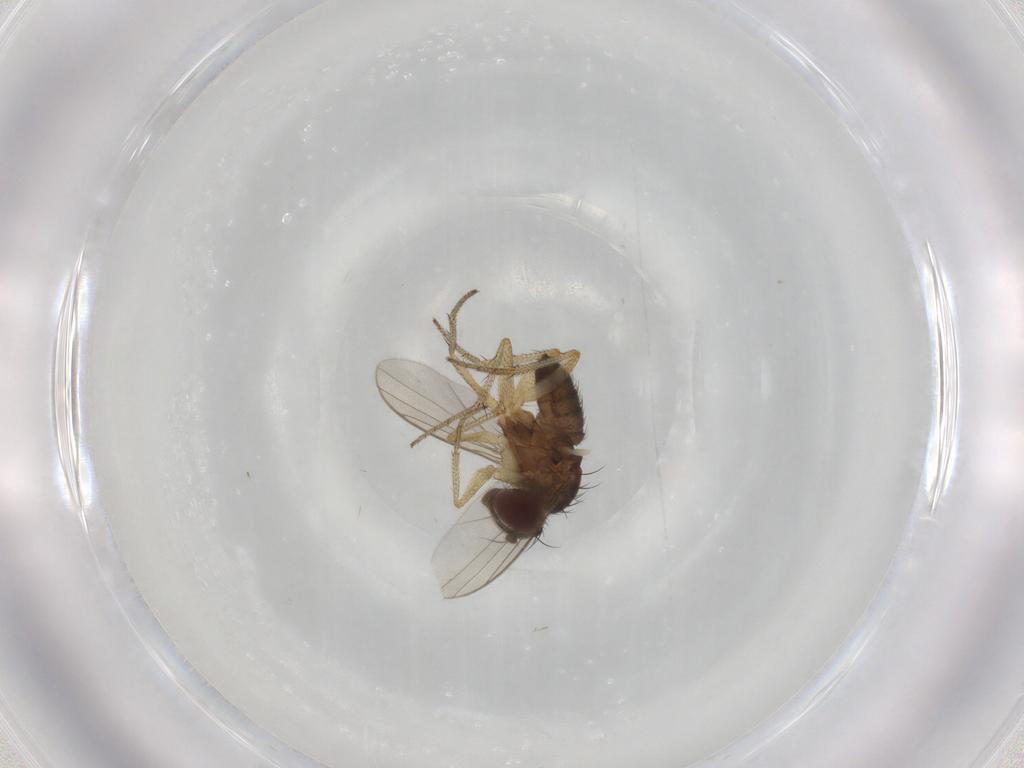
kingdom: Animalia
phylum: Arthropoda
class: Insecta
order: Diptera
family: Dolichopodidae
